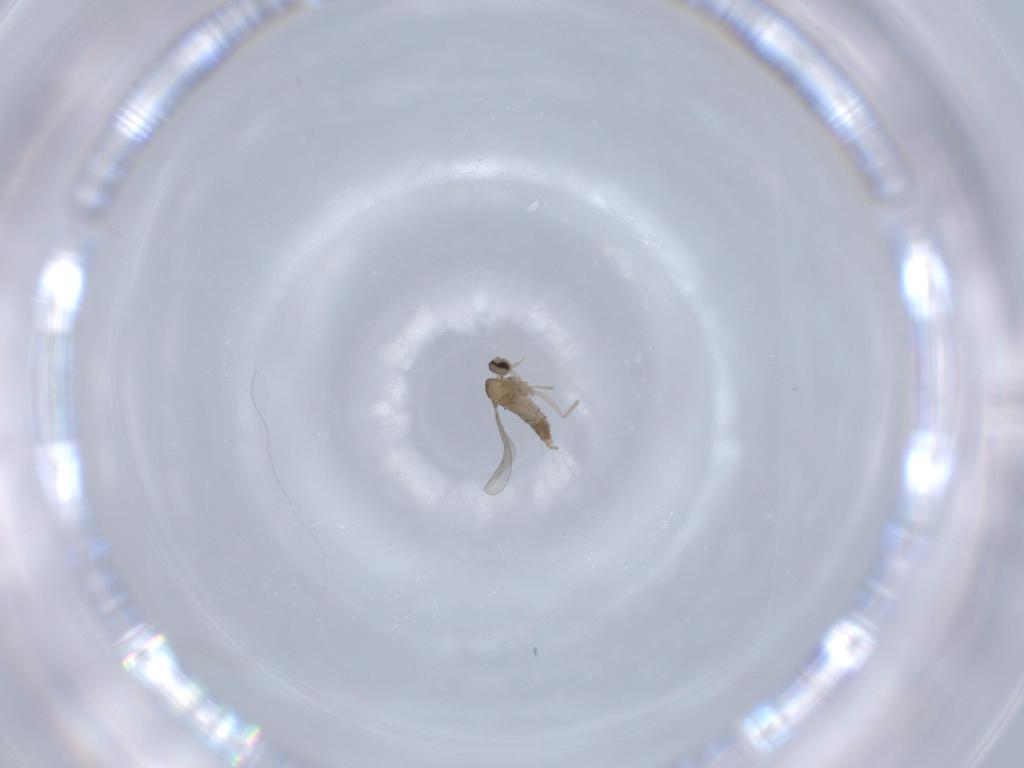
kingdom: Animalia
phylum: Arthropoda
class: Insecta
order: Diptera
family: Cecidomyiidae
